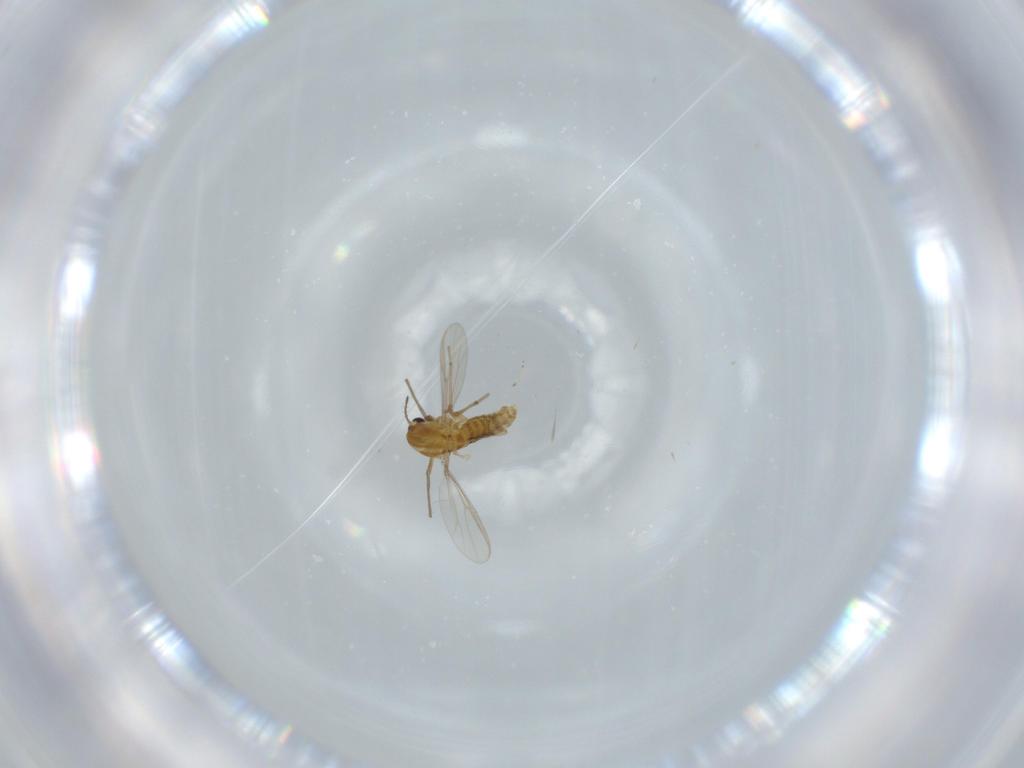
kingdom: Animalia
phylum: Arthropoda
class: Insecta
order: Diptera
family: Chironomidae
